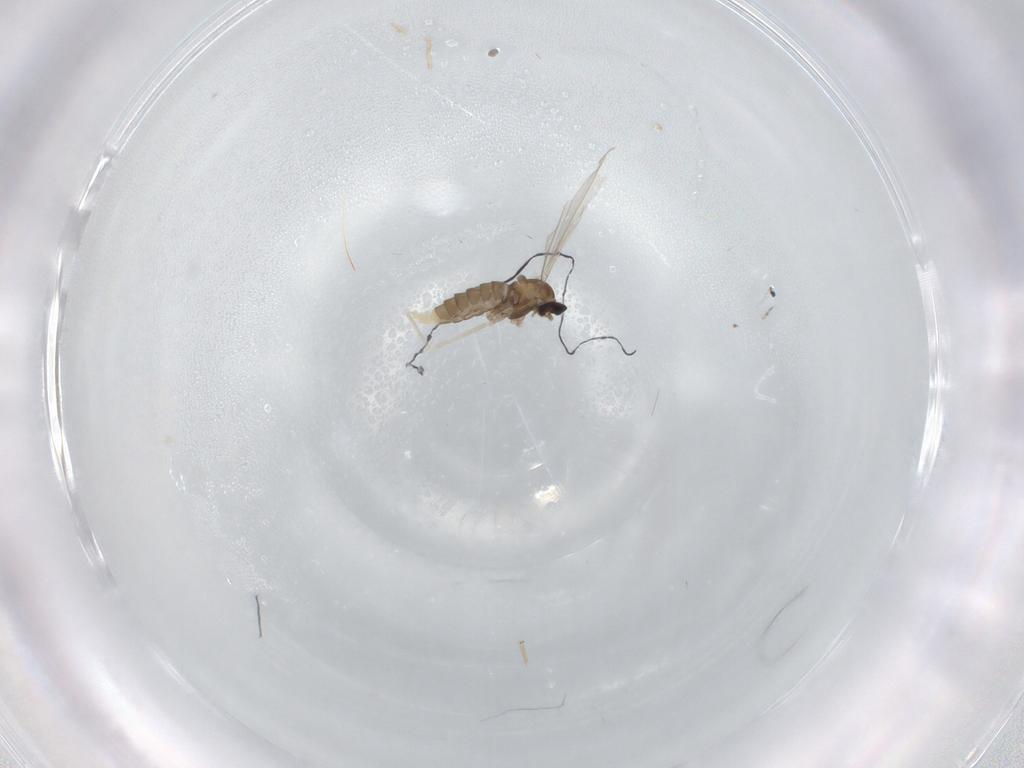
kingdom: Animalia
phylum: Arthropoda
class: Insecta
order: Diptera
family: Cecidomyiidae
